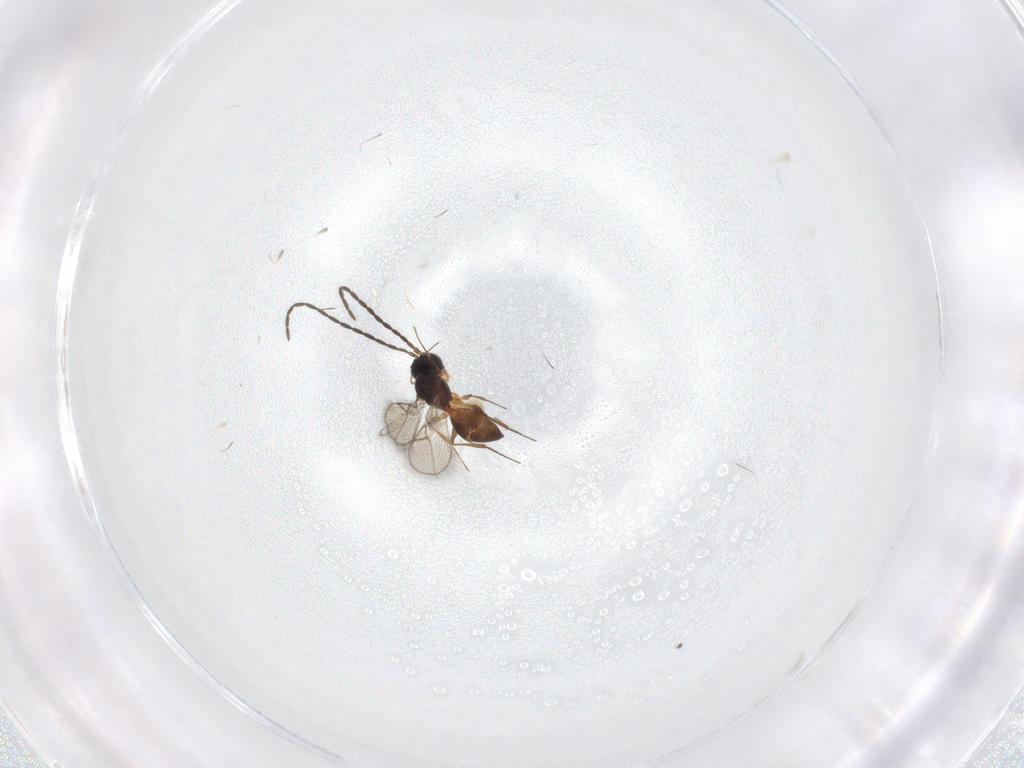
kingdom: Animalia
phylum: Arthropoda
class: Insecta
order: Hymenoptera
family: Figitidae
